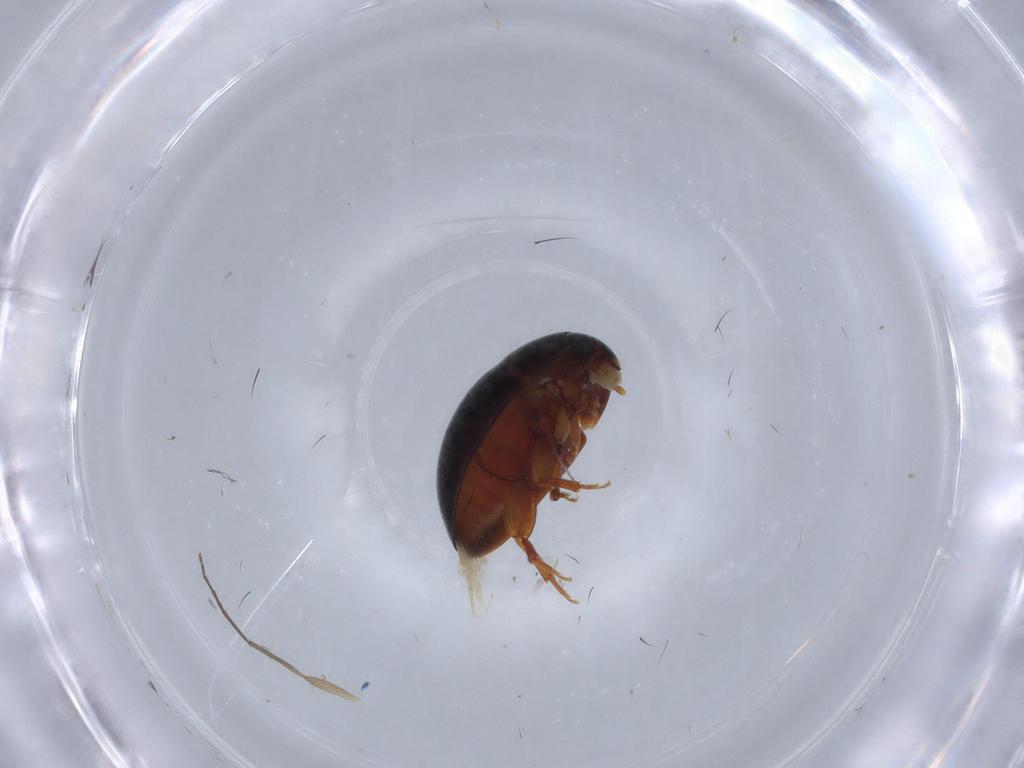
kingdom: Animalia
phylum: Arthropoda
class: Insecta
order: Coleoptera
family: Phalacridae
